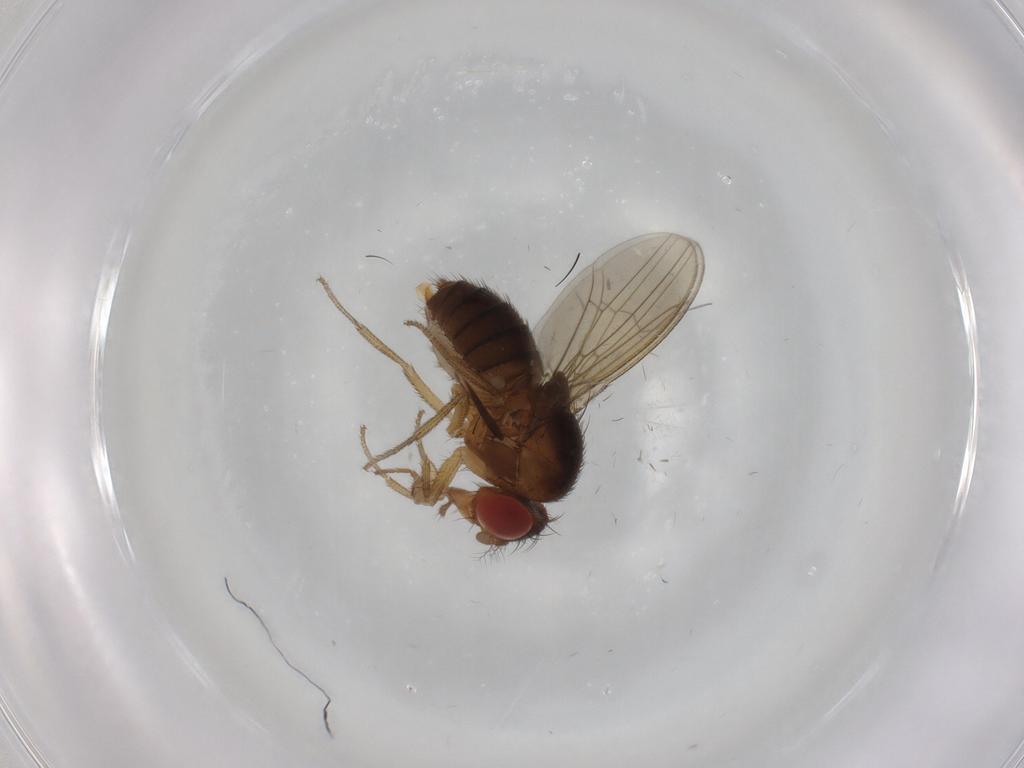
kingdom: Animalia
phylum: Arthropoda
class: Insecta
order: Diptera
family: Drosophilidae
